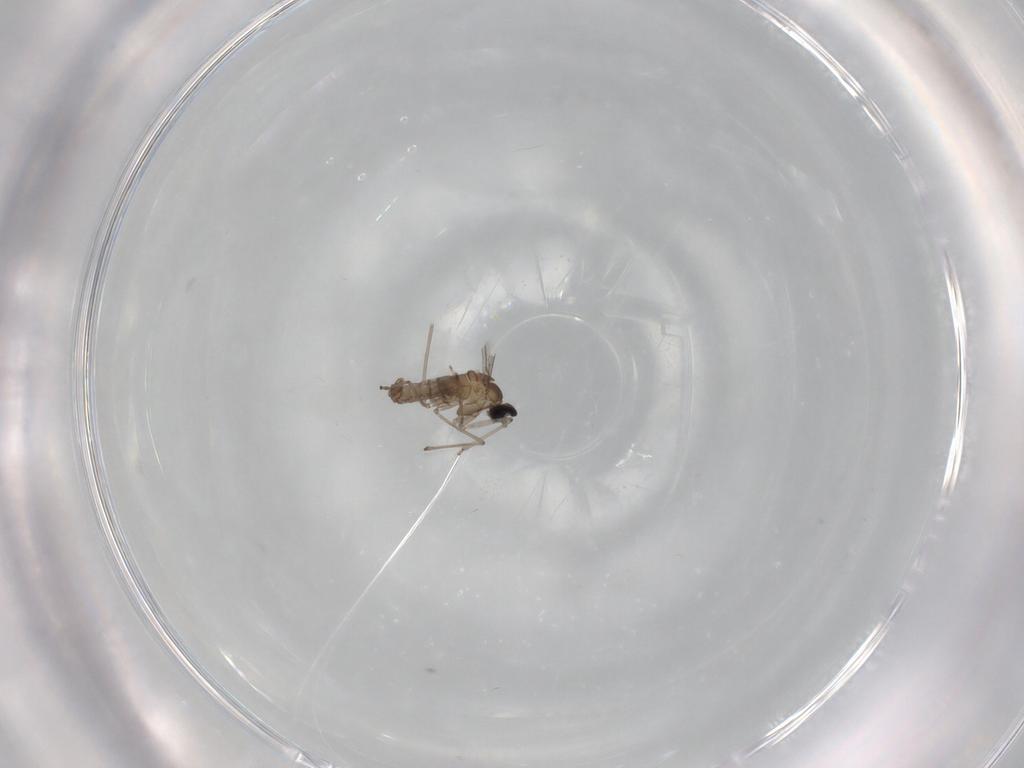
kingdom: Animalia
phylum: Arthropoda
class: Insecta
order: Diptera
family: Cecidomyiidae
